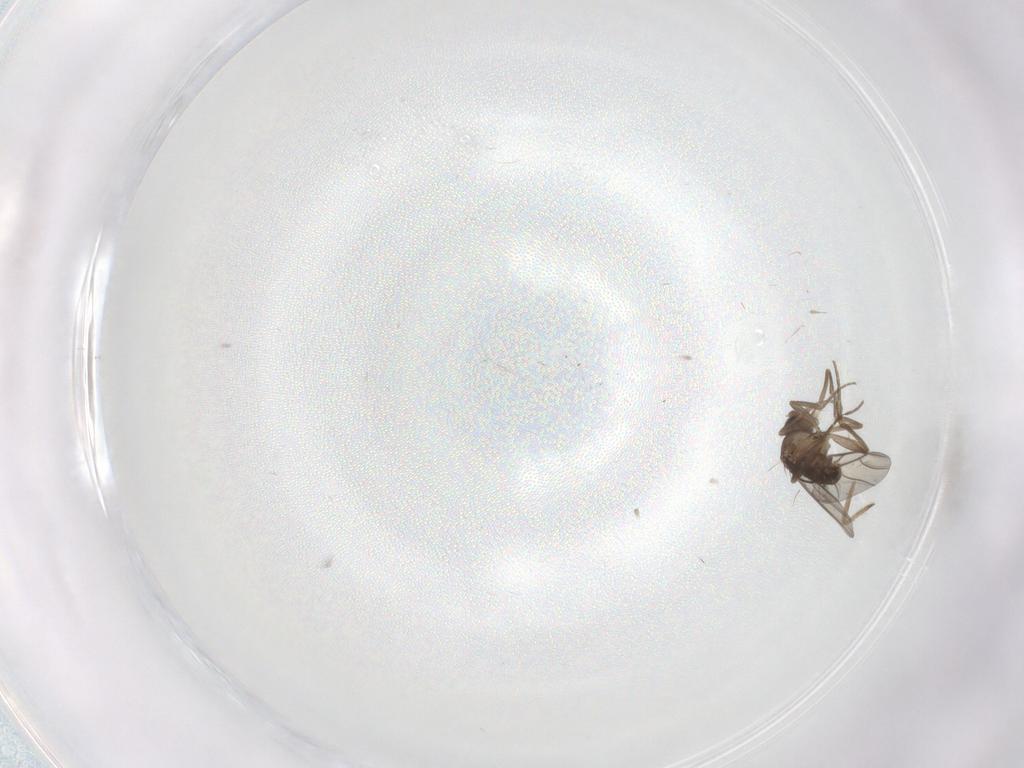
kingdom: Animalia
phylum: Arthropoda
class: Insecta
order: Diptera
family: Phoridae
